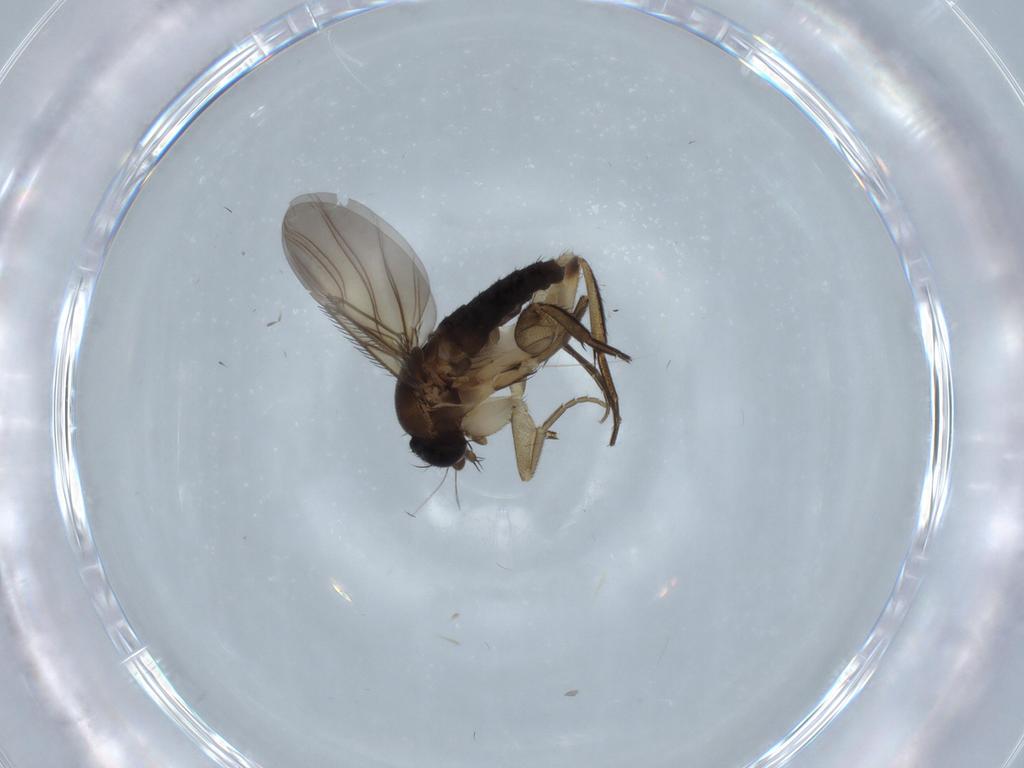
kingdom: Animalia
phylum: Arthropoda
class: Insecta
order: Diptera
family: Phoridae
